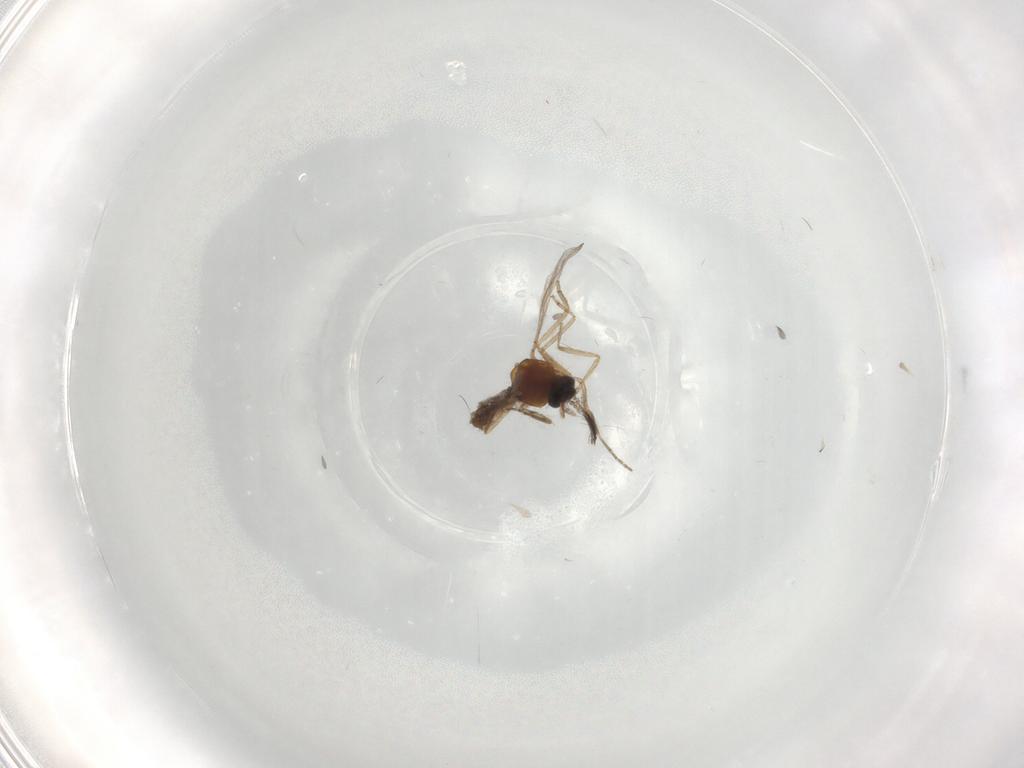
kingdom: Animalia
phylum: Arthropoda
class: Insecta
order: Diptera
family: Ceratopogonidae
